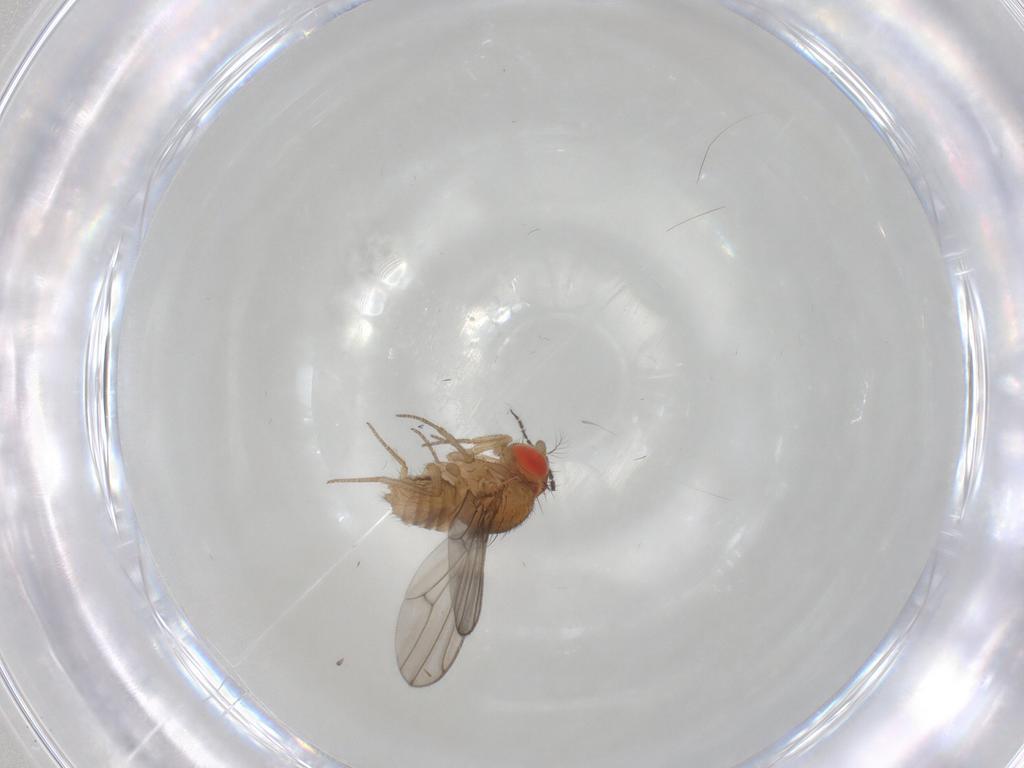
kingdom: Animalia
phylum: Arthropoda
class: Insecta
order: Diptera
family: Drosophilidae
